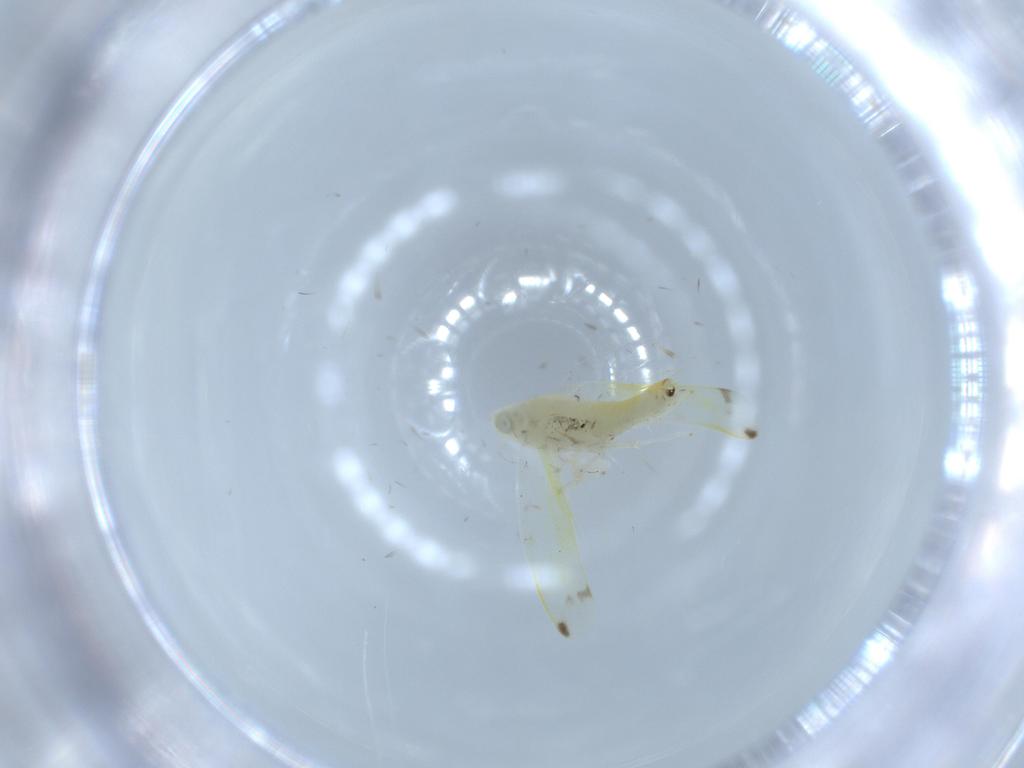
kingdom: Animalia
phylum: Arthropoda
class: Insecta
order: Hemiptera
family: Cicadellidae
